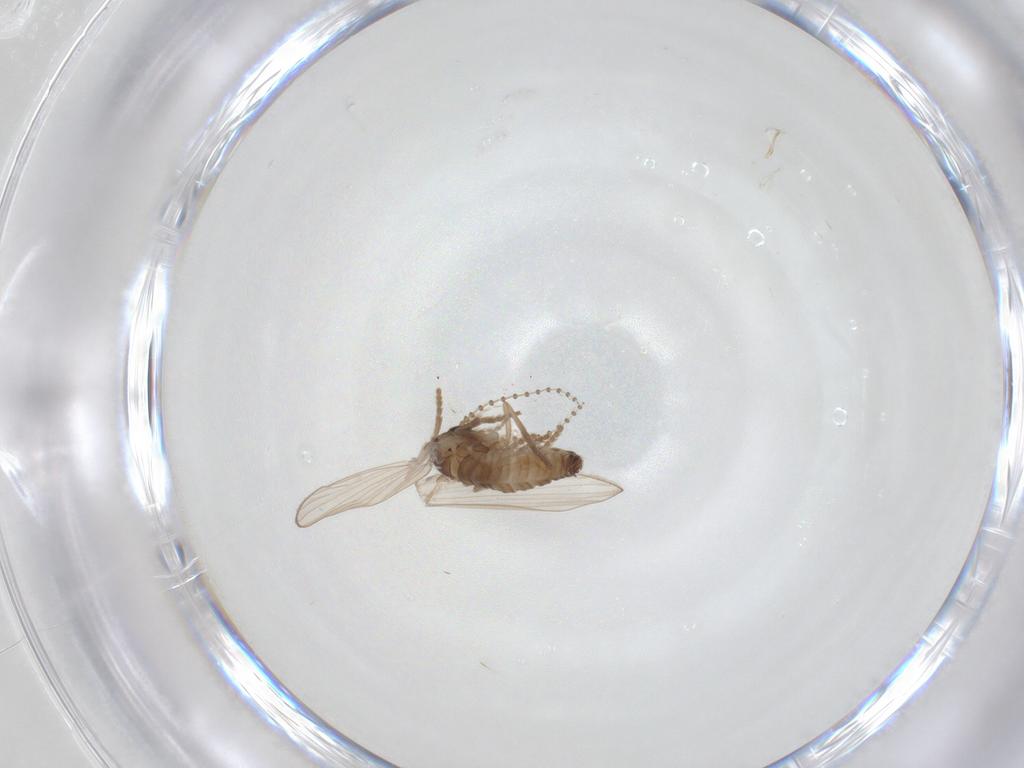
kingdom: Animalia
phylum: Arthropoda
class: Insecta
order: Diptera
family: Psychodidae
